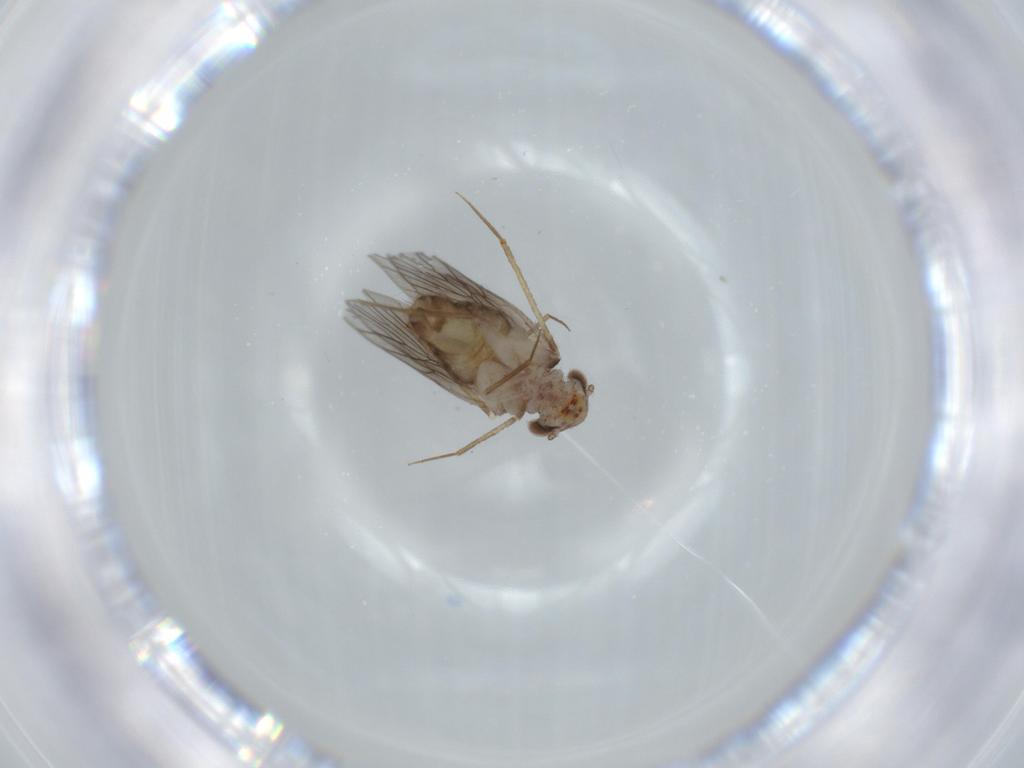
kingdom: Animalia
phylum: Arthropoda
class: Insecta
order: Psocodea
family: Lepidopsocidae
